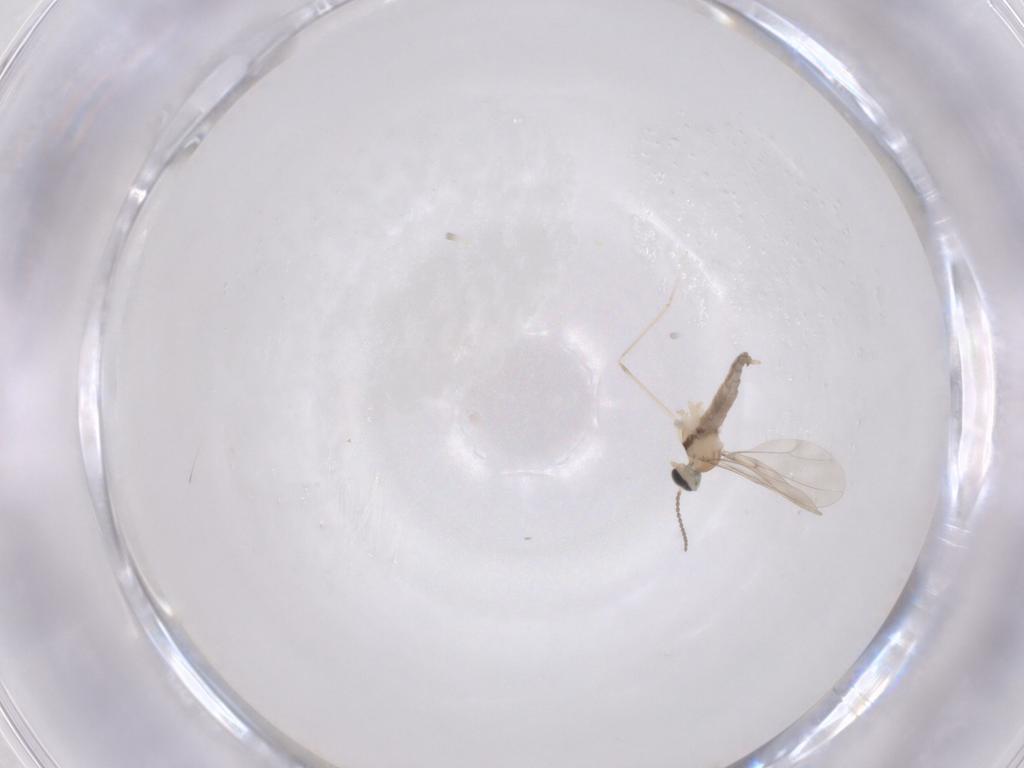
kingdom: Animalia
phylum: Arthropoda
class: Insecta
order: Diptera
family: Cecidomyiidae
